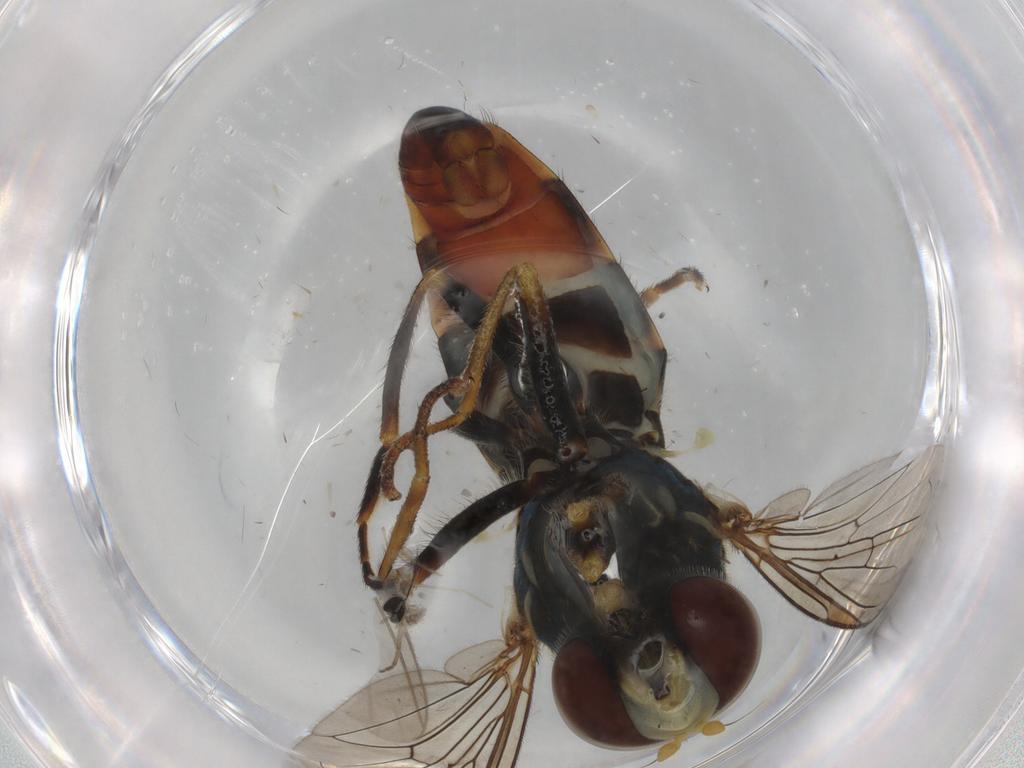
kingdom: Animalia
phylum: Arthropoda
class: Insecta
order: Diptera
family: Syrphidae
